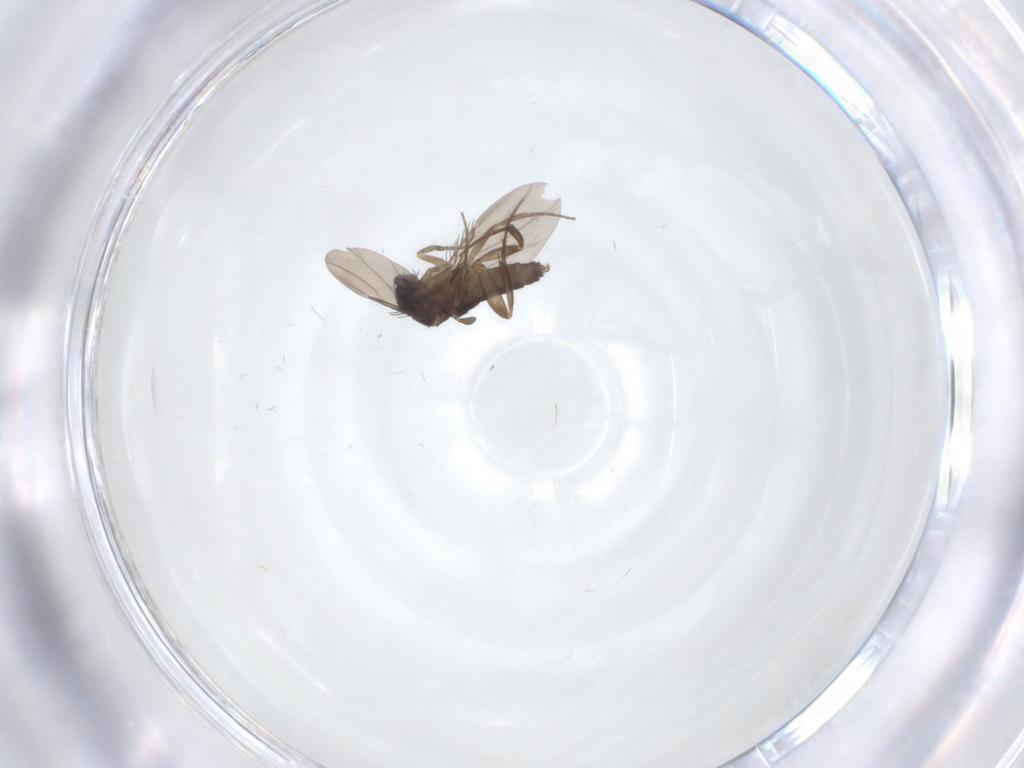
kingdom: Animalia
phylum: Arthropoda
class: Insecta
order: Diptera
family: Phoridae
